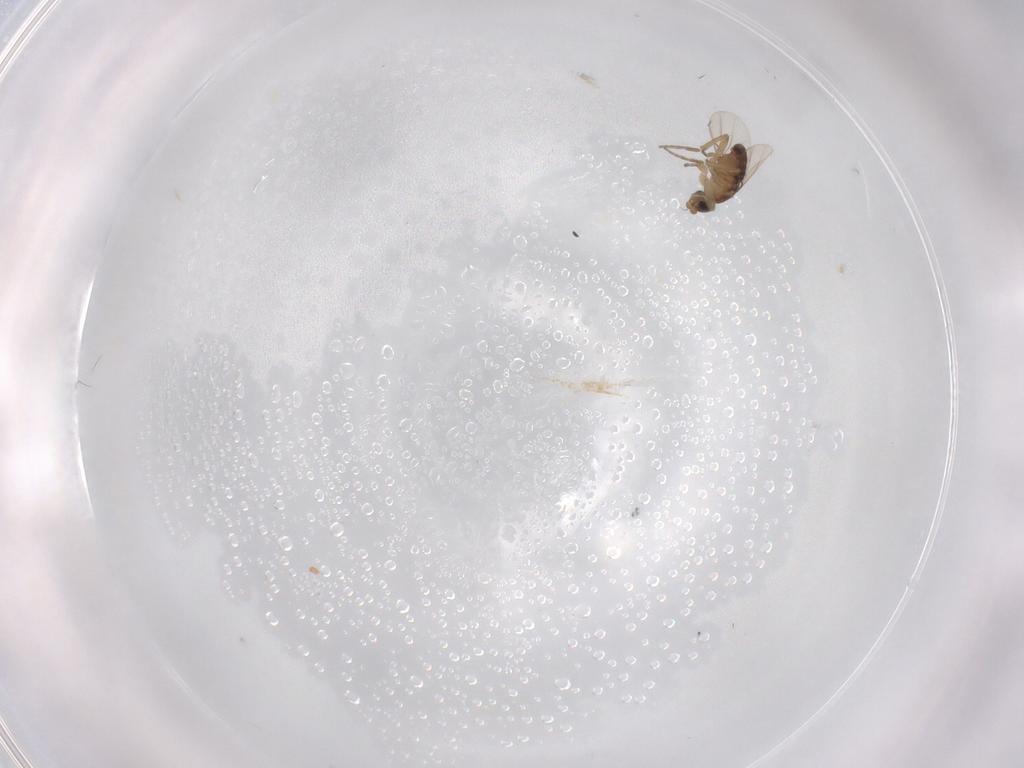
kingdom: Animalia
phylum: Arthropoda
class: Insecta
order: Diptera
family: Phoridae
